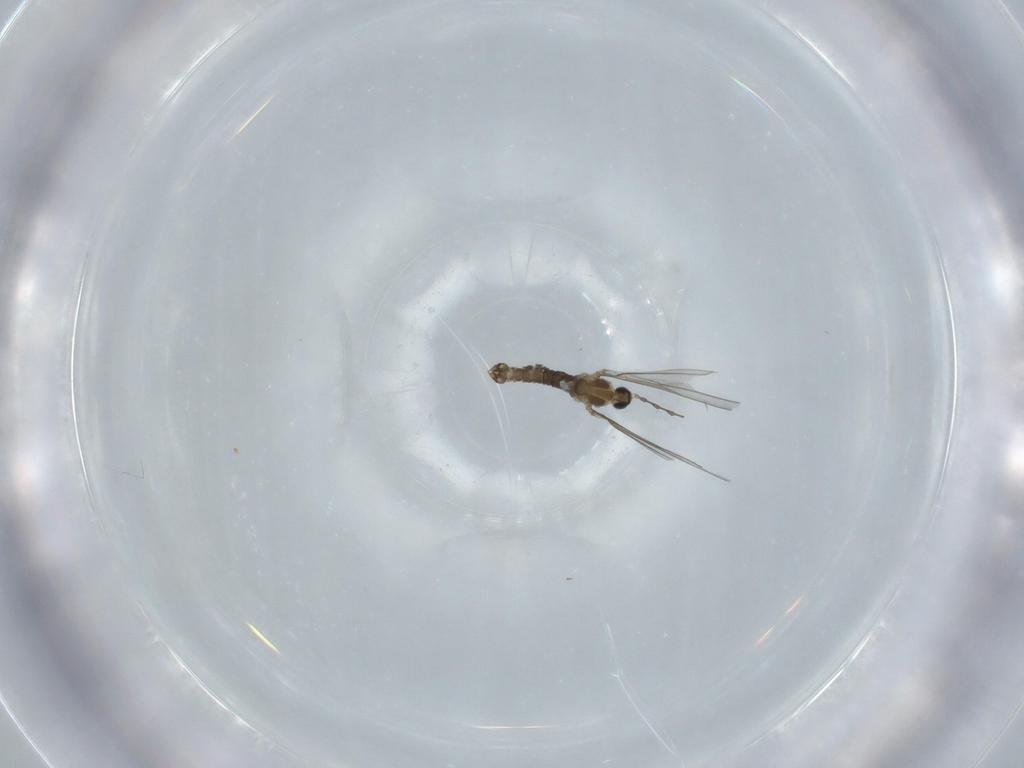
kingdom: Animalia
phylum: Arthropoda
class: Insecta
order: Diptera
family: Cecidomyiidae
